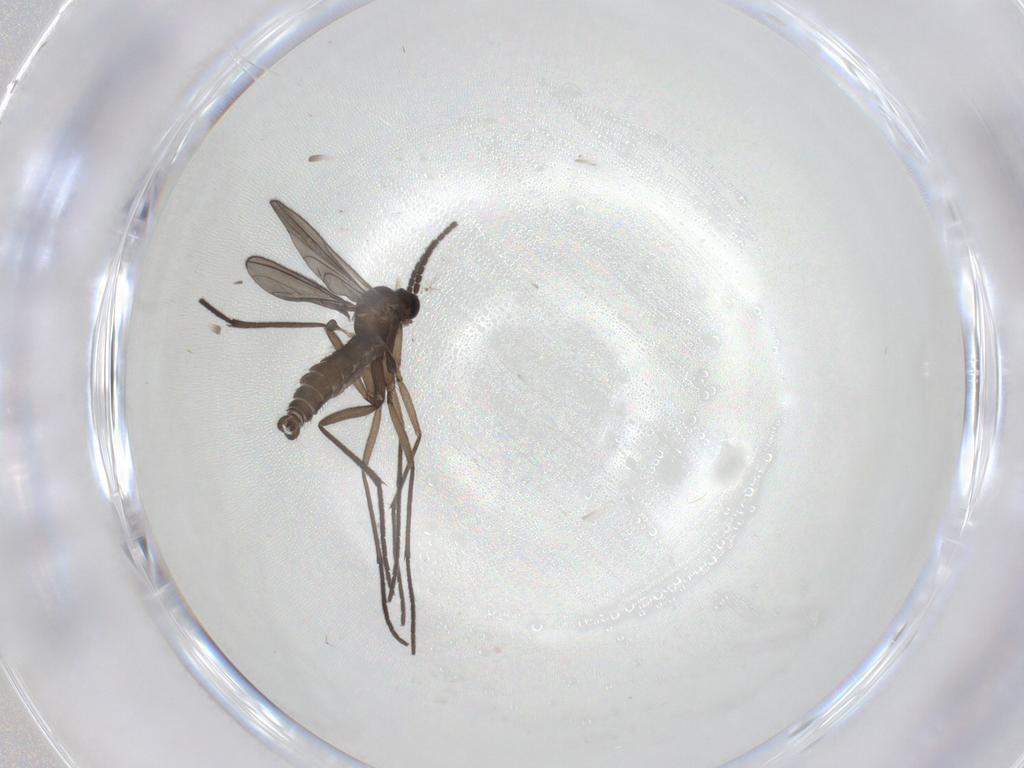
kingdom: Animalia
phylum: Arthropoda
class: Insecta
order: Diptera
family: Sciaridae
